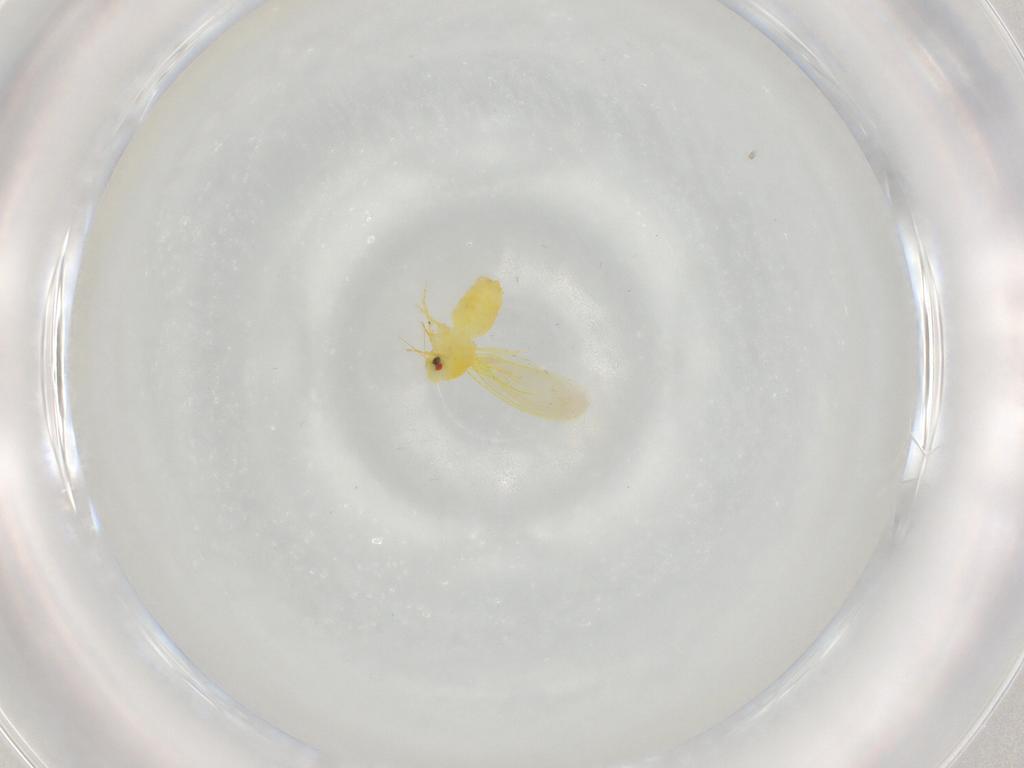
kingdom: Animalia
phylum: Arthropoda
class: Insecta
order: Hemiptera
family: Aleyrodidae
